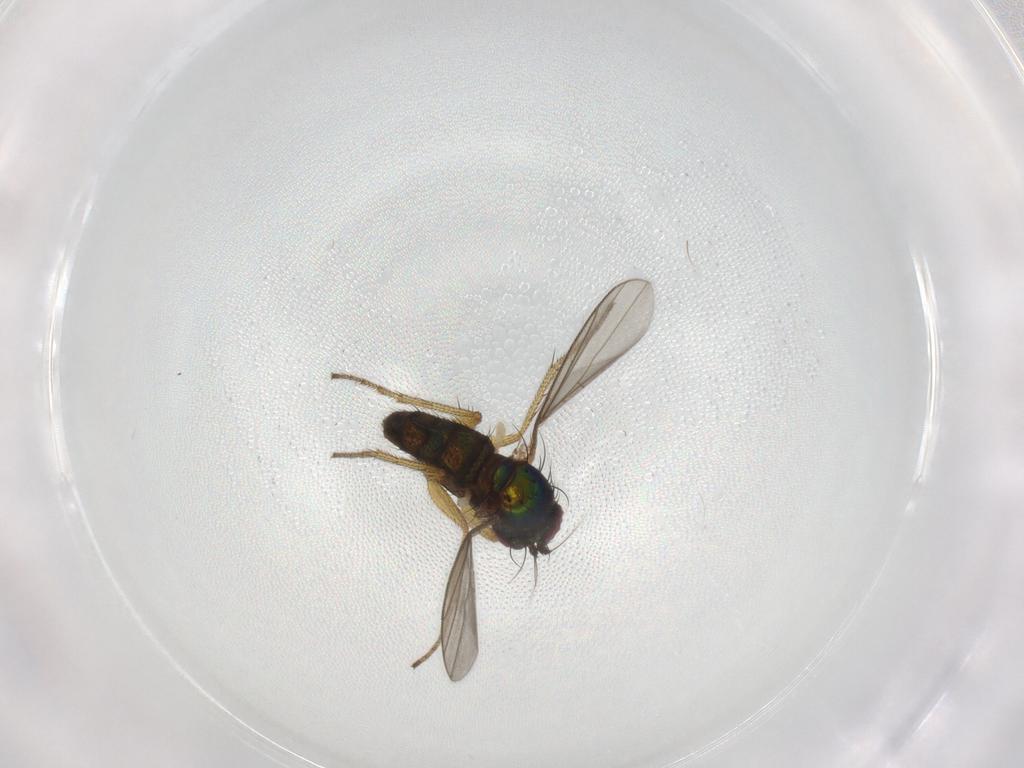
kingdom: Animalia
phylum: Arthropoda
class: Insecta
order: Diptera
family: Dolichopodidae
